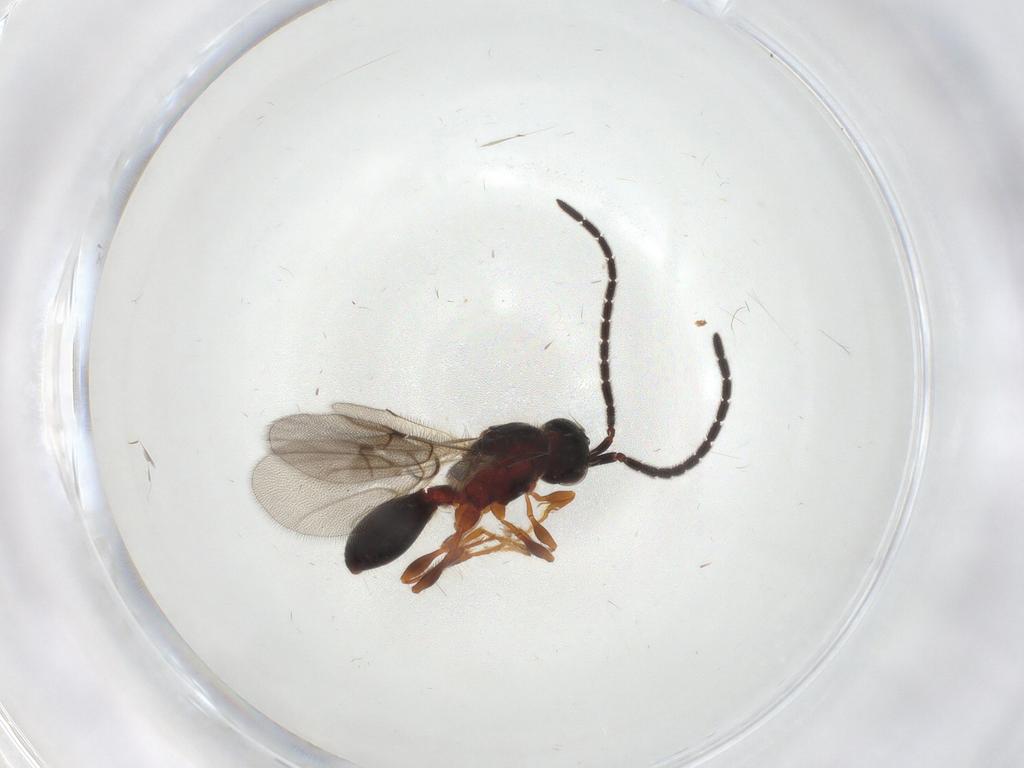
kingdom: Animalia
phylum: Arthropoda
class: Insecta
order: Hymenoptera
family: Diapriidae
